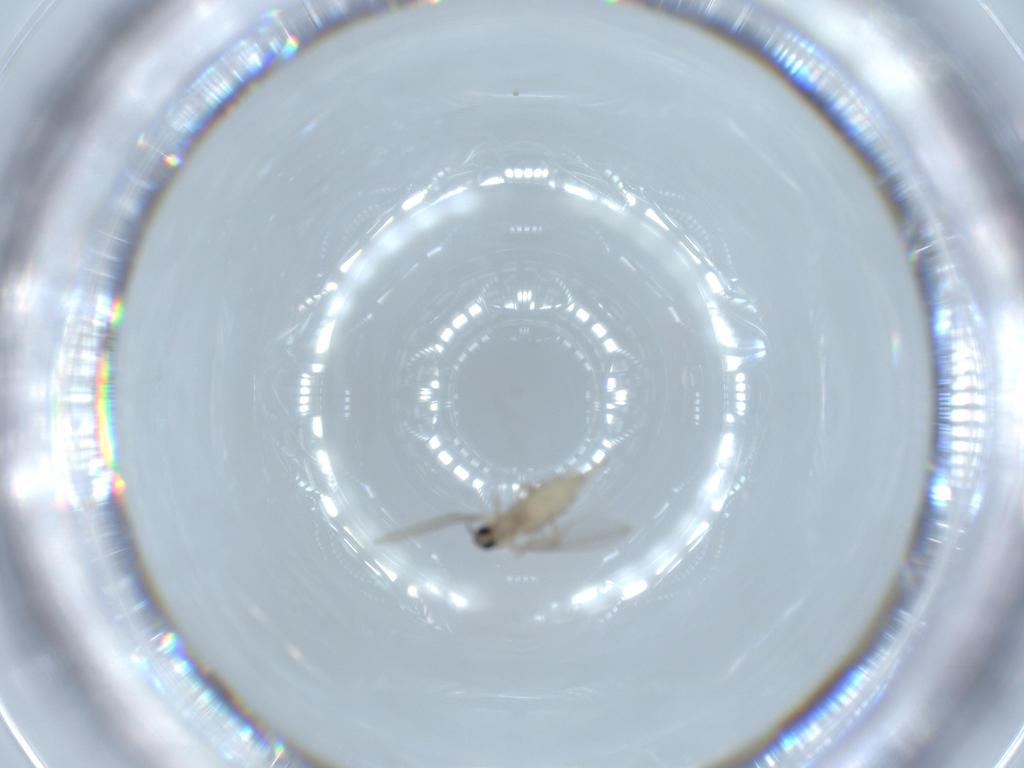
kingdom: Animalia
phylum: Arthropoda
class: Insecta
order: Diptera
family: Cecidomyiidae
